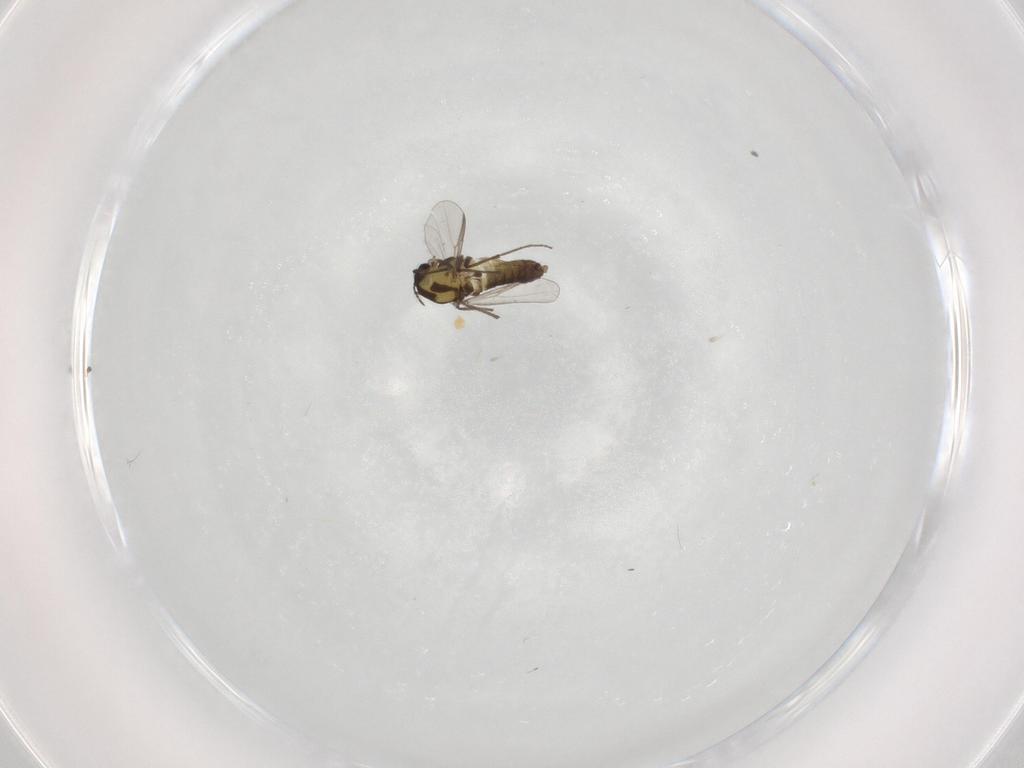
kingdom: Animalia
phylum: Arthropoda
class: Insecta
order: Diptera
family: Chironomidae
